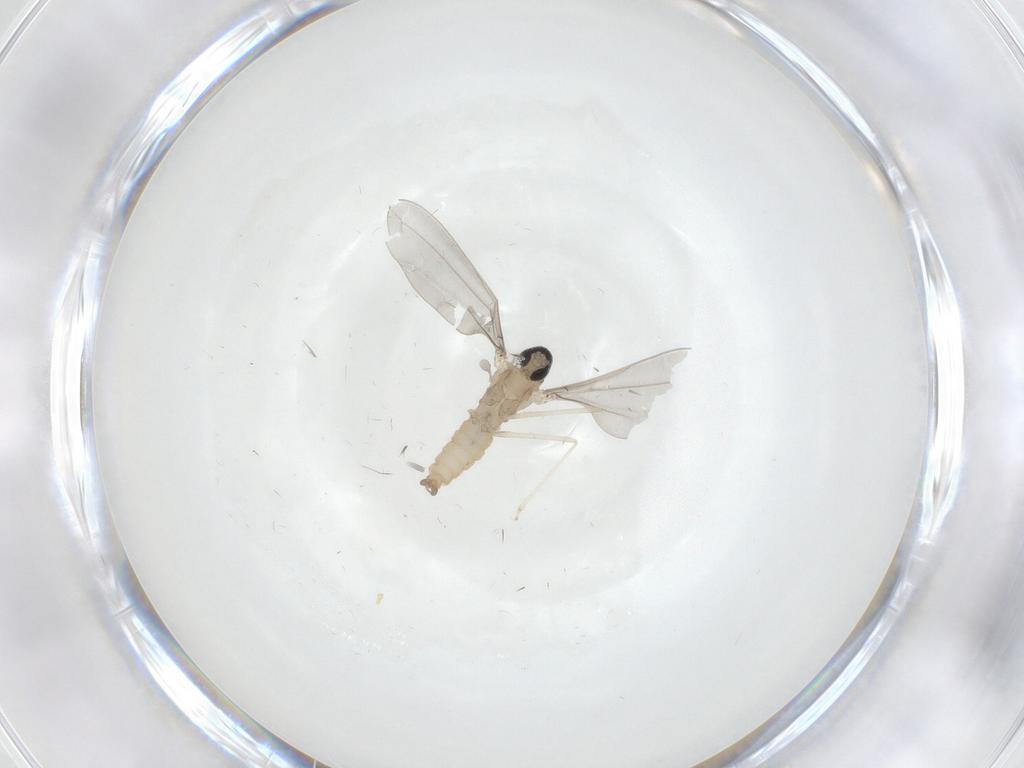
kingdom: Animalia
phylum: Arthropoda
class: Insecta
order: Diptera
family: Cecidomyiidae
